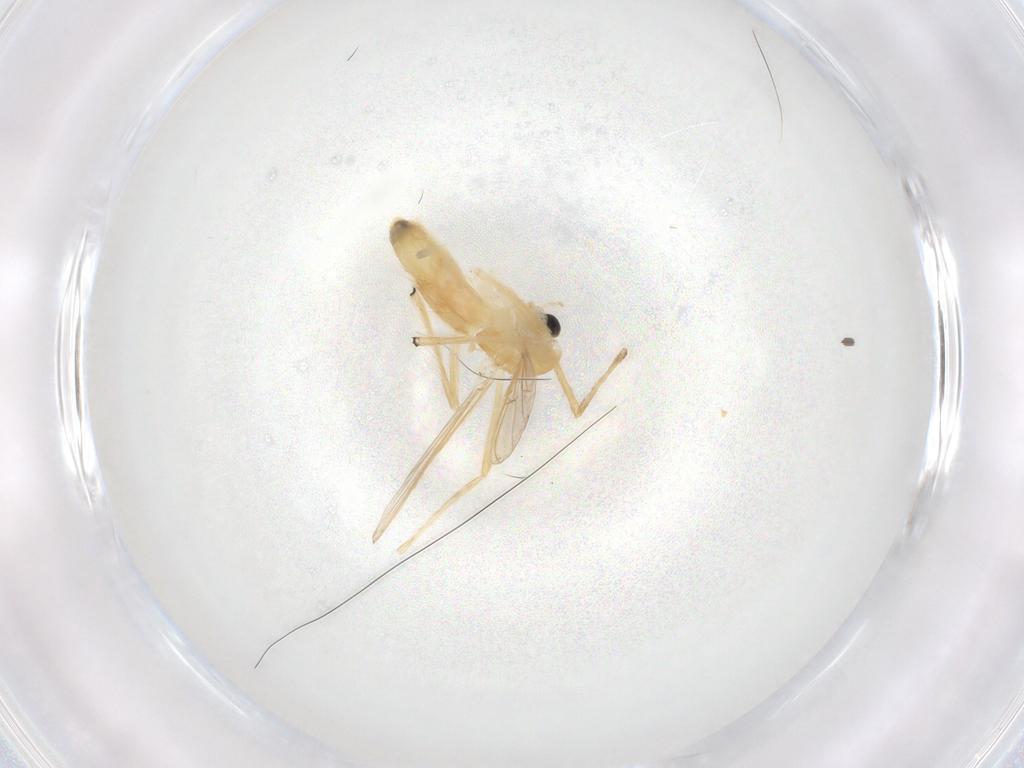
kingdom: Animalia
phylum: Arthropoda
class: Insecta
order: Diptera
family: Chironomidae
